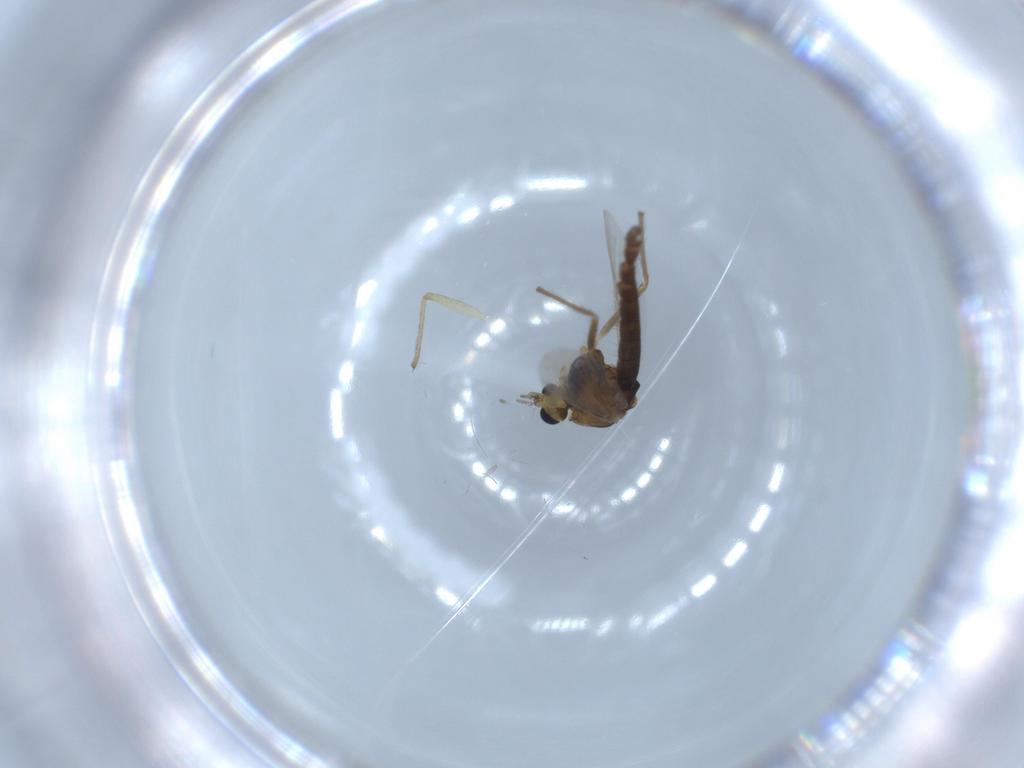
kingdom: Animalia
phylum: Arthropoda
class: Insecta
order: Diptera
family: Chironomidae
